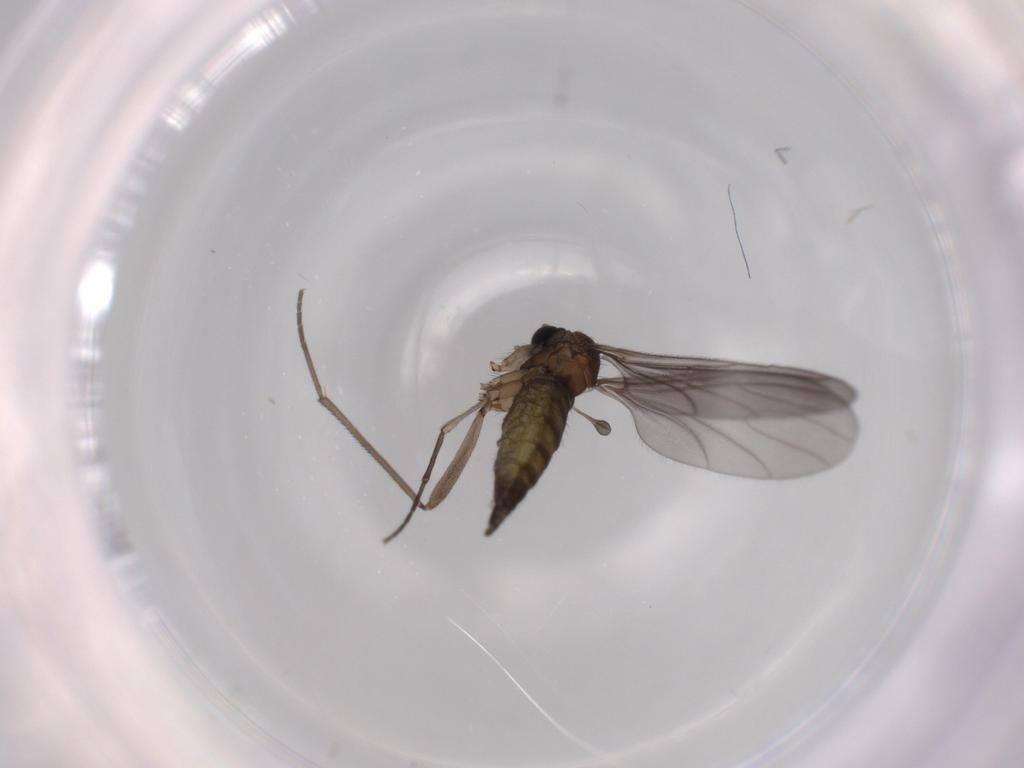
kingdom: Animalia
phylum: Arthropoda
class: Insecta
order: Diptera
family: Sciaridae
